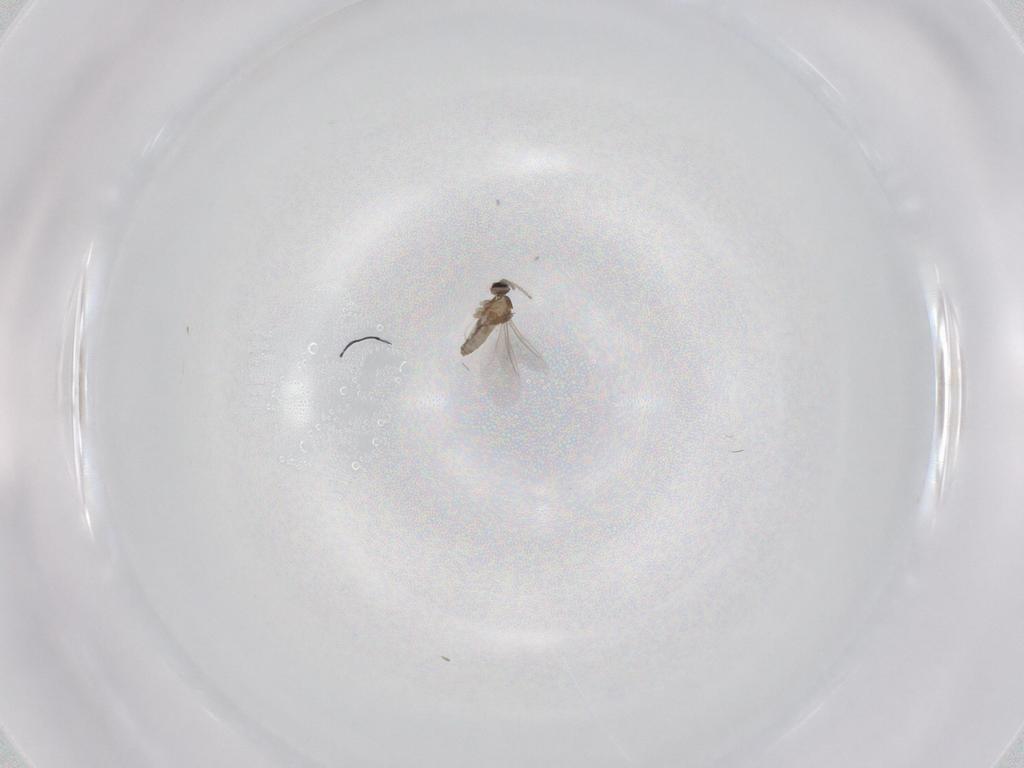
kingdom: Animalia
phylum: Arthropoda
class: Insecta
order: Diptera
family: Cecidomyiidae
